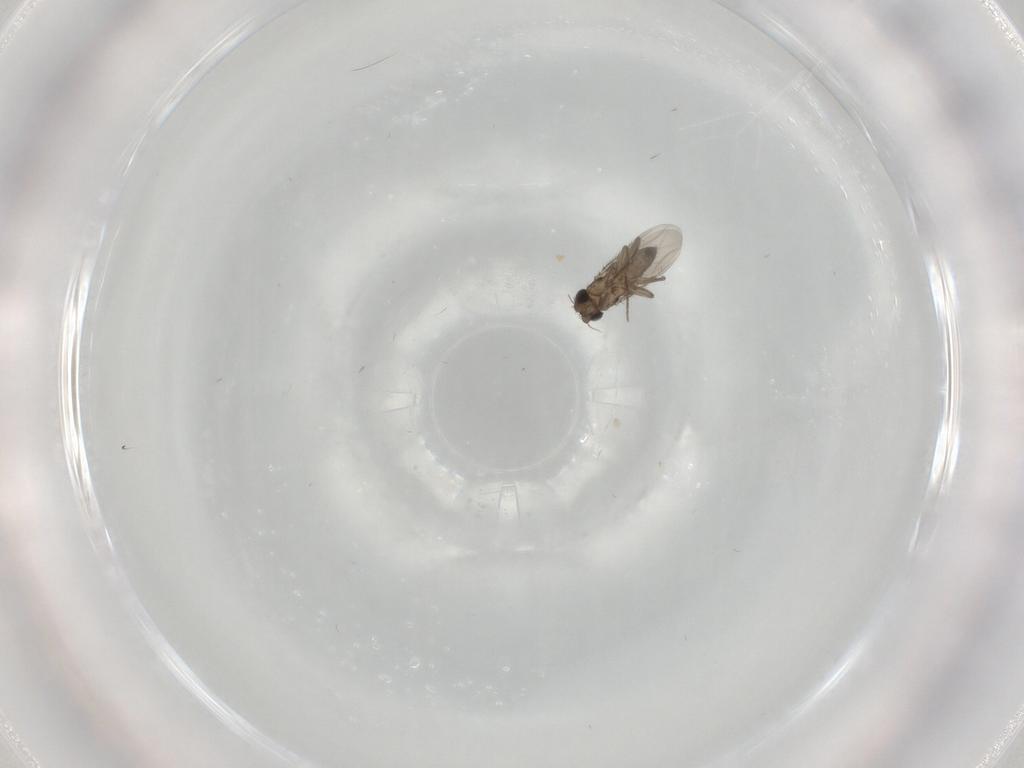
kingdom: Animalia
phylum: Arthropoda
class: Insecta
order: Diptera
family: Phoridae
